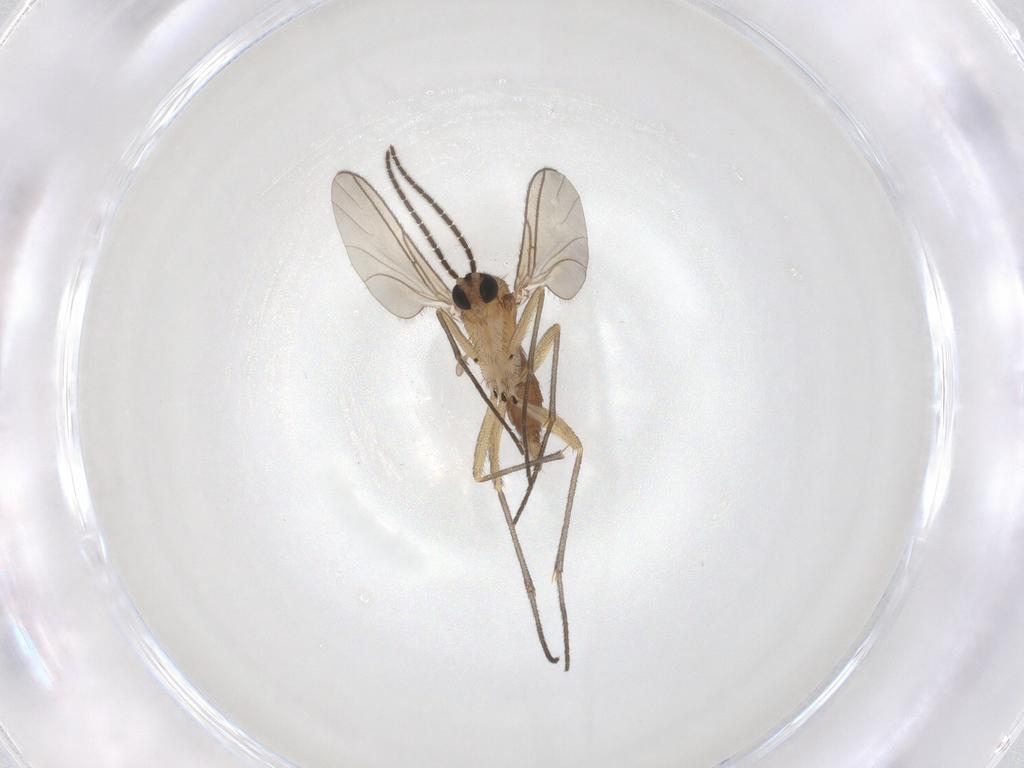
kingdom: Animalia
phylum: Arthropoda
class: Insecta
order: Diptera
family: Sciaridae
